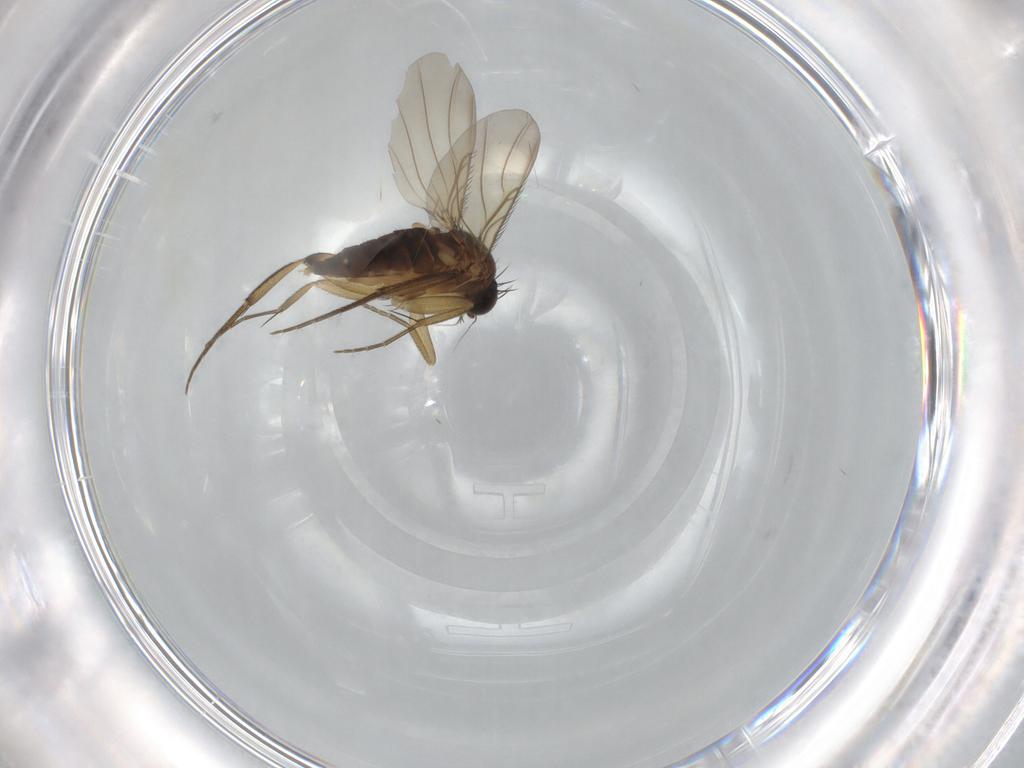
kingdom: Animalia
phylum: Arthropoda
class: Insecta
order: Diptera
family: Phoridae
